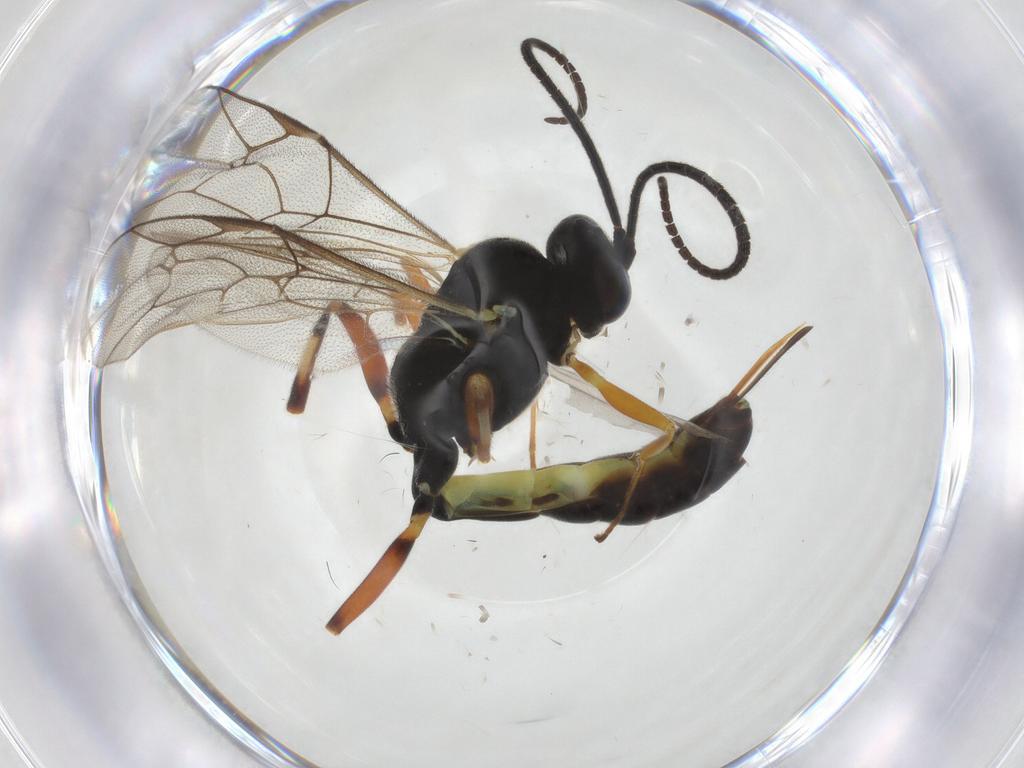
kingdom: Animalia
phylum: Arthropoda
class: Insecta
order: Hymenoptera
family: Ichneumonidae
